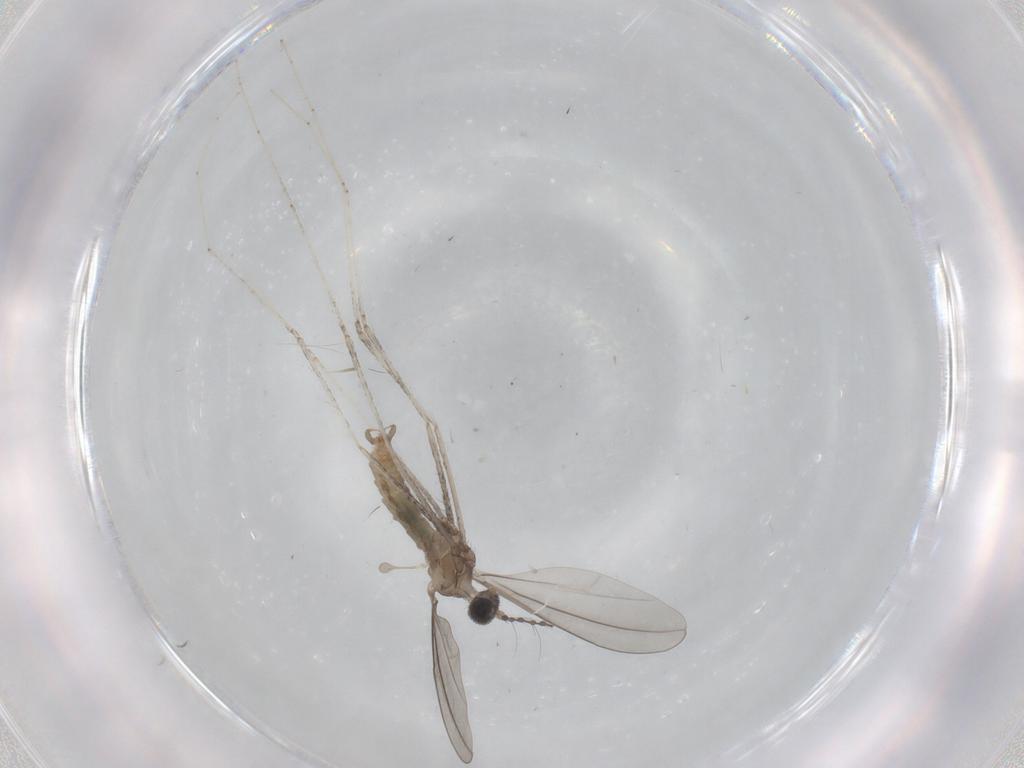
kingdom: Animalia
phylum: Arthropoda
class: Insecta
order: Diptera
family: Cecidomyiidae
